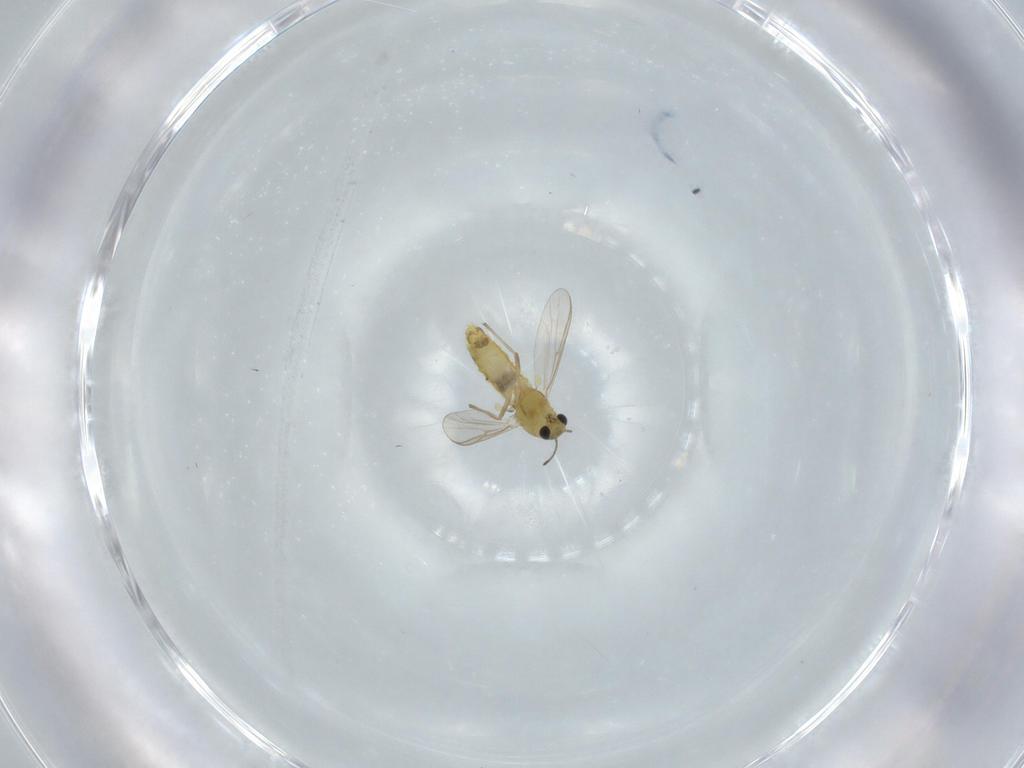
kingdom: Animalia
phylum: Arthropoda
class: Insecta
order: Diptera
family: Chironomidae
